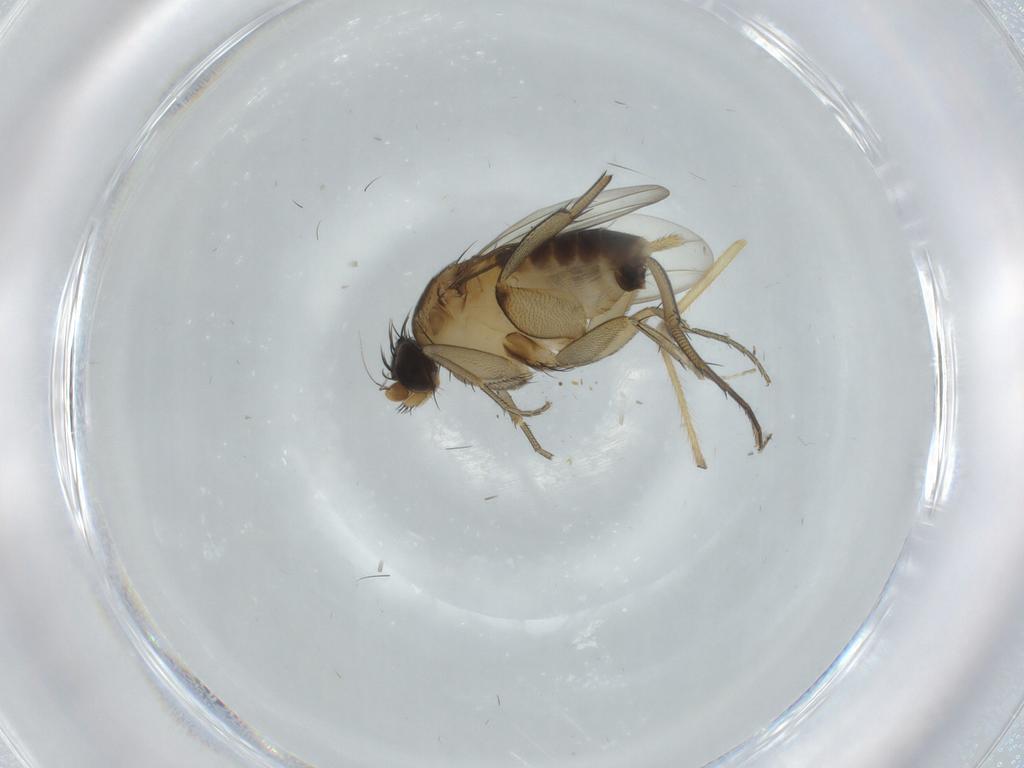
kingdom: Animalia
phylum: Arthropoda
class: Insecta
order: Diptera
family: Phoridae
